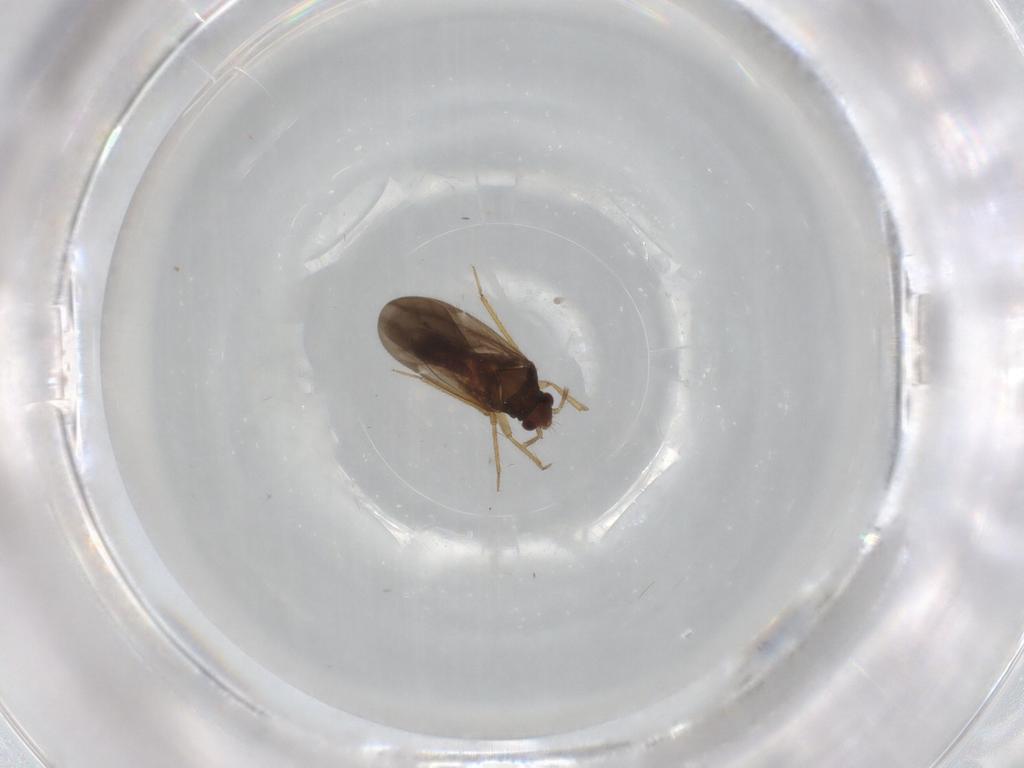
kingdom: Animalia
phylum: Arthropoda
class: Insecta
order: Hemiptera
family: Ceratocombidae
